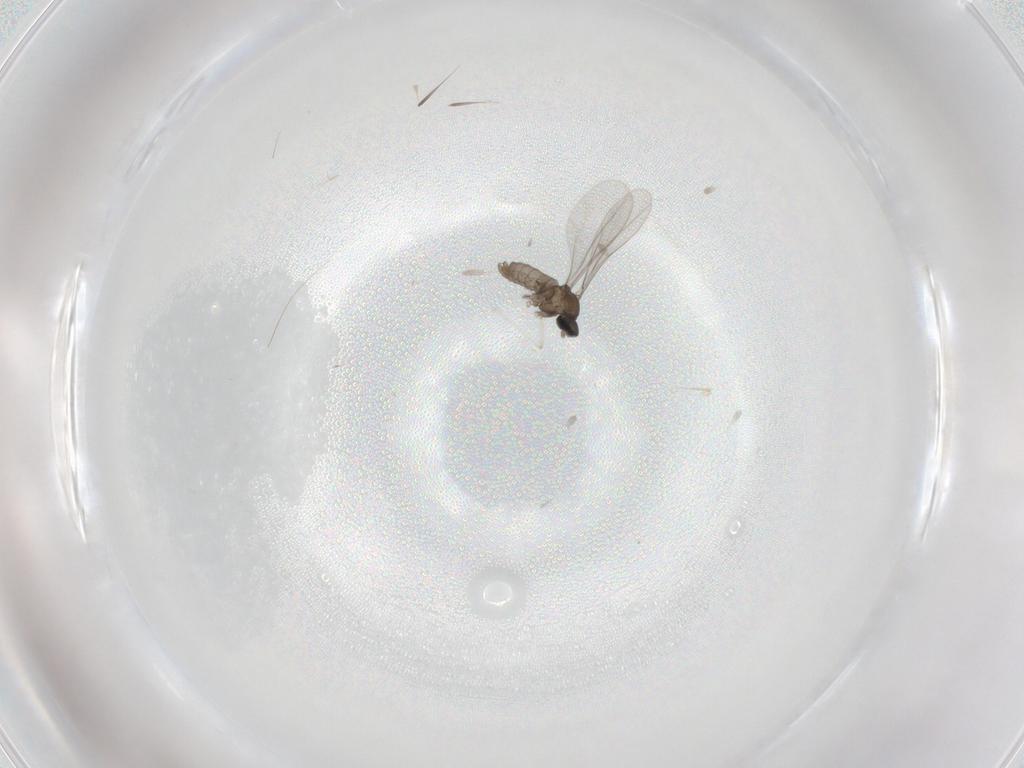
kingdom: Animalia
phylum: Arthropoda
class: Insecta
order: Diptera
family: Cecidomyiidae
